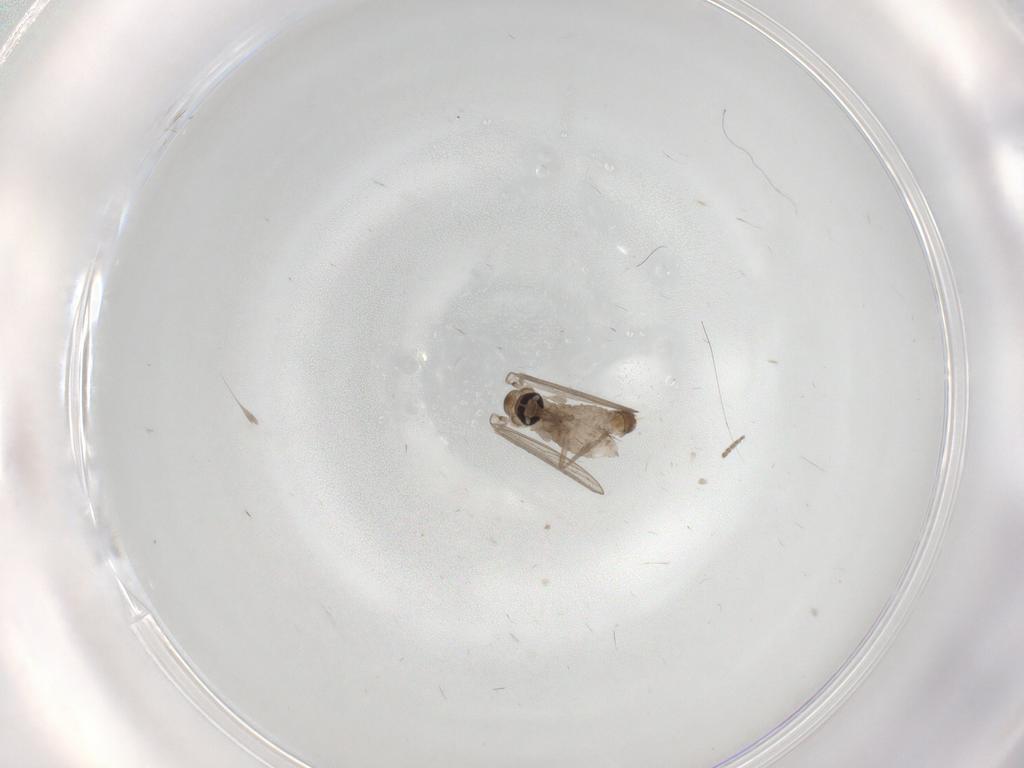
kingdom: Animalia
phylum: Arthropoda
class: Insecta
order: Diptera
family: Psychodidae
